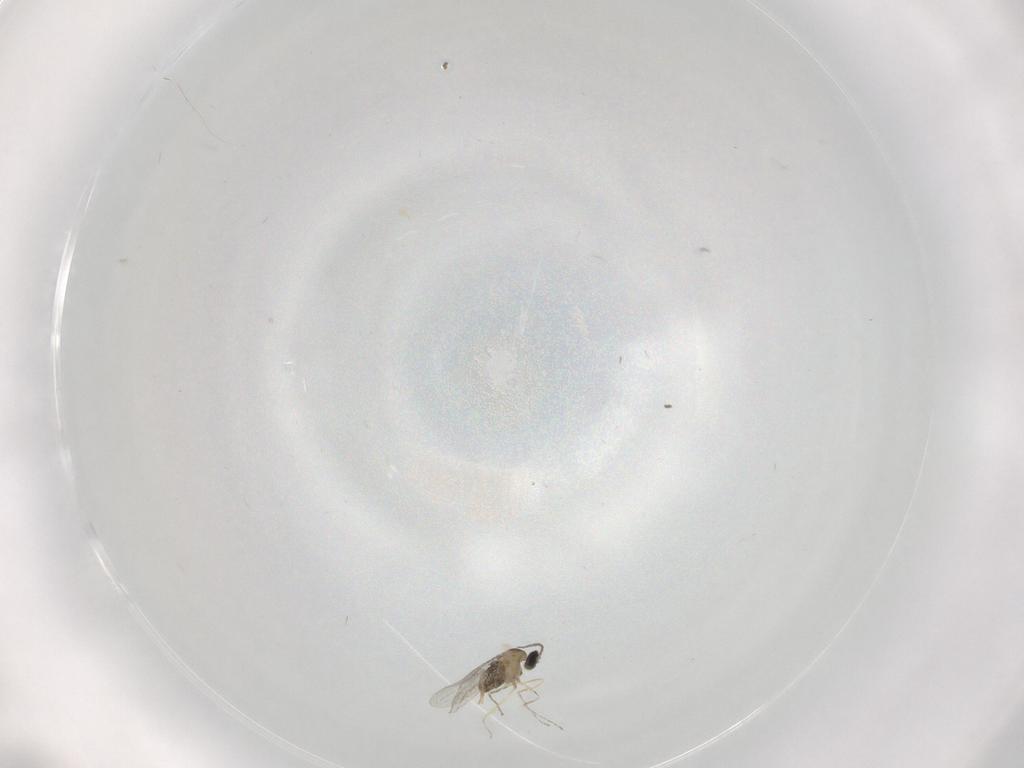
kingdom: Animalia
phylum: Arthropoda
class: Insecta
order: Diptera
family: Cecidomyiidae
